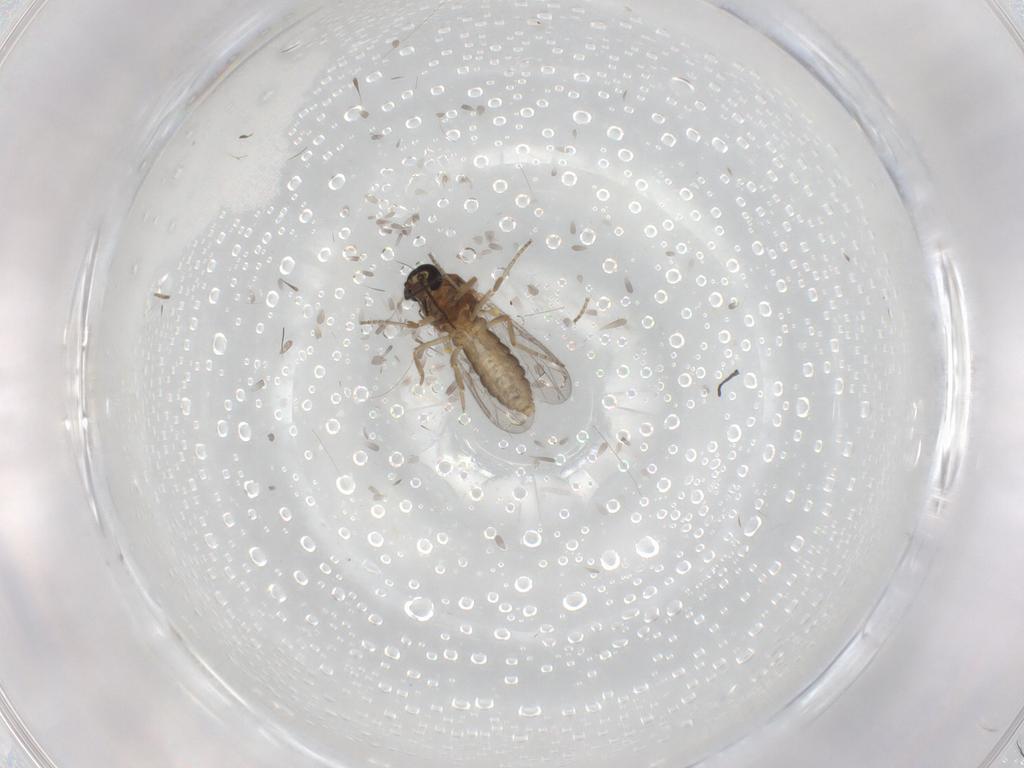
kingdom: Animalia
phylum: Arthropoda
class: Insecta
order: Diptera
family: Ceratopogonidae
